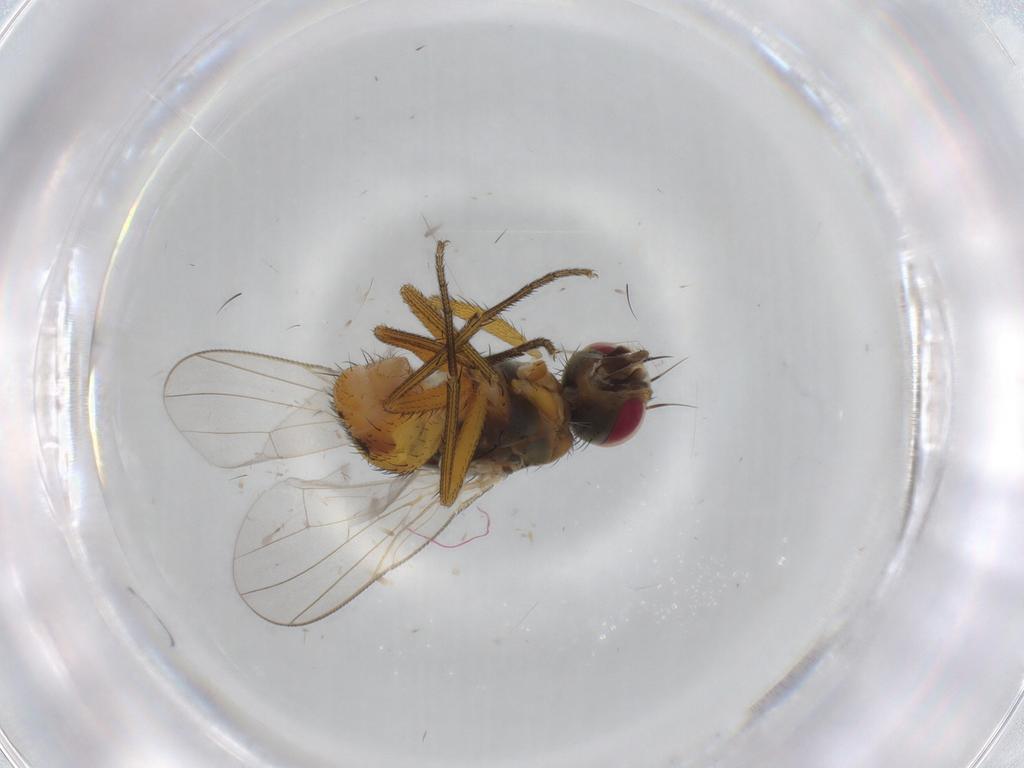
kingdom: Animalia
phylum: Arthropoda
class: Insecta
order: Diptera
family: Muscidae
